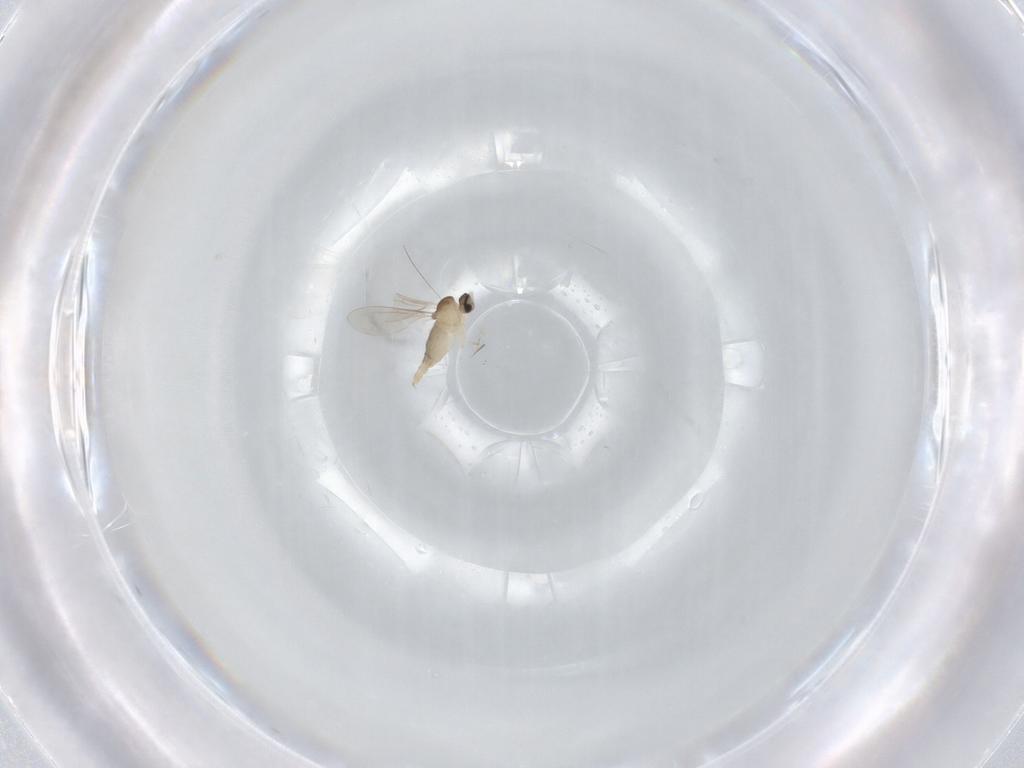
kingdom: Animalia
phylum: Arthropoda
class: Insecta
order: Diptera
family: Cecidomyiidae
